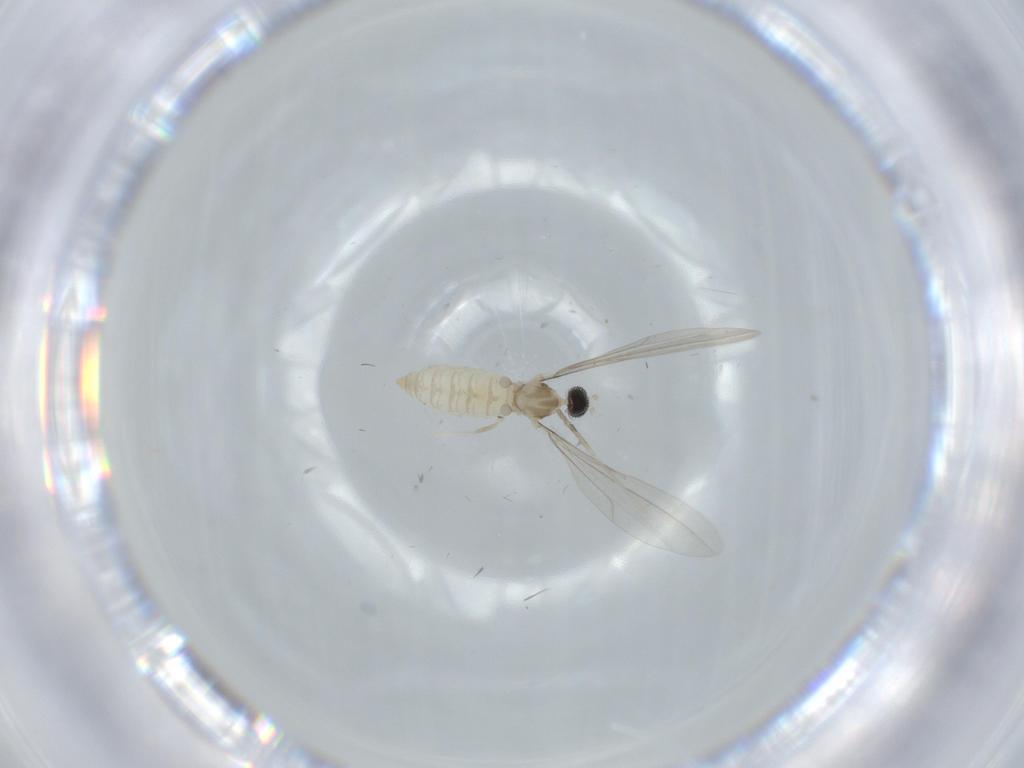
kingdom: Animalia
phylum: Arthropoda
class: Insecta
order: Diptera
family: Cecidomyiidae
